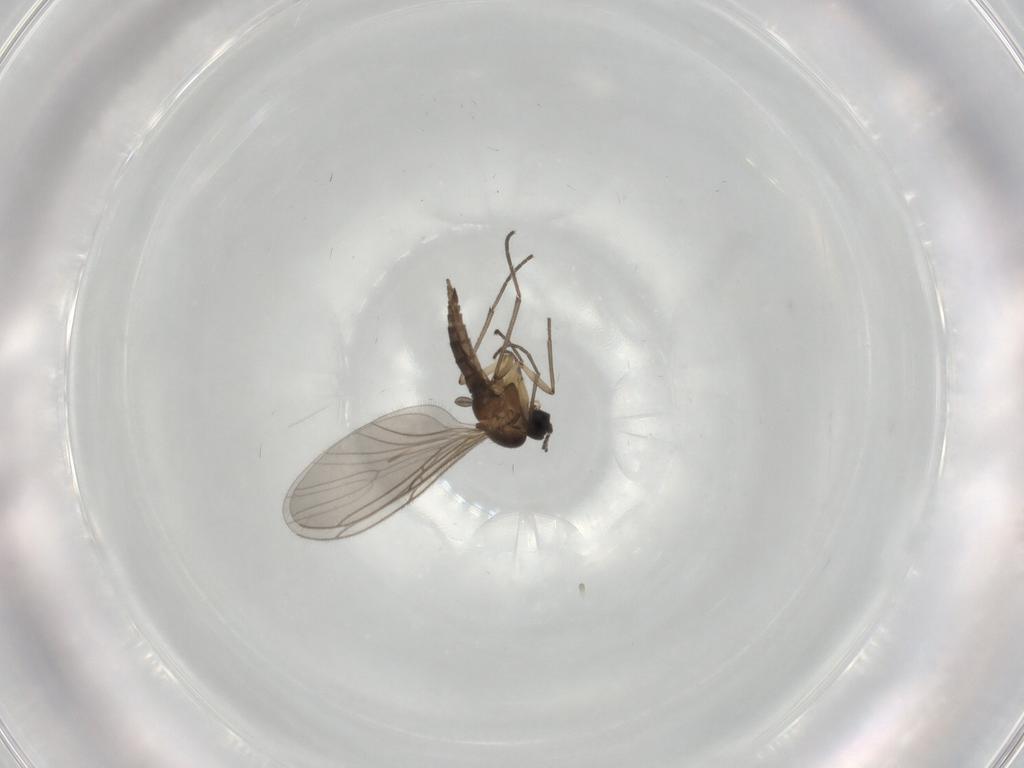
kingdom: Animalia
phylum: Arthropoda
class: Insecta
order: Diptera
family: Sciaridae
